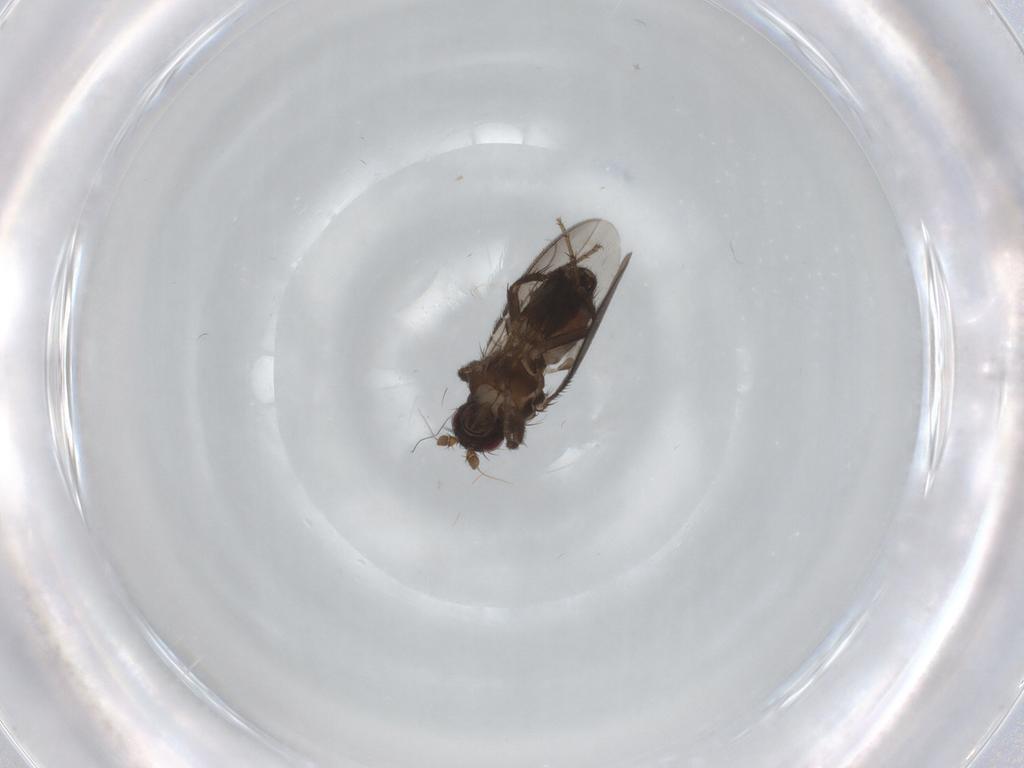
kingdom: Animalia
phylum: Arthropoda
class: Insecta
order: Diptera
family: Sphaeroceridae
